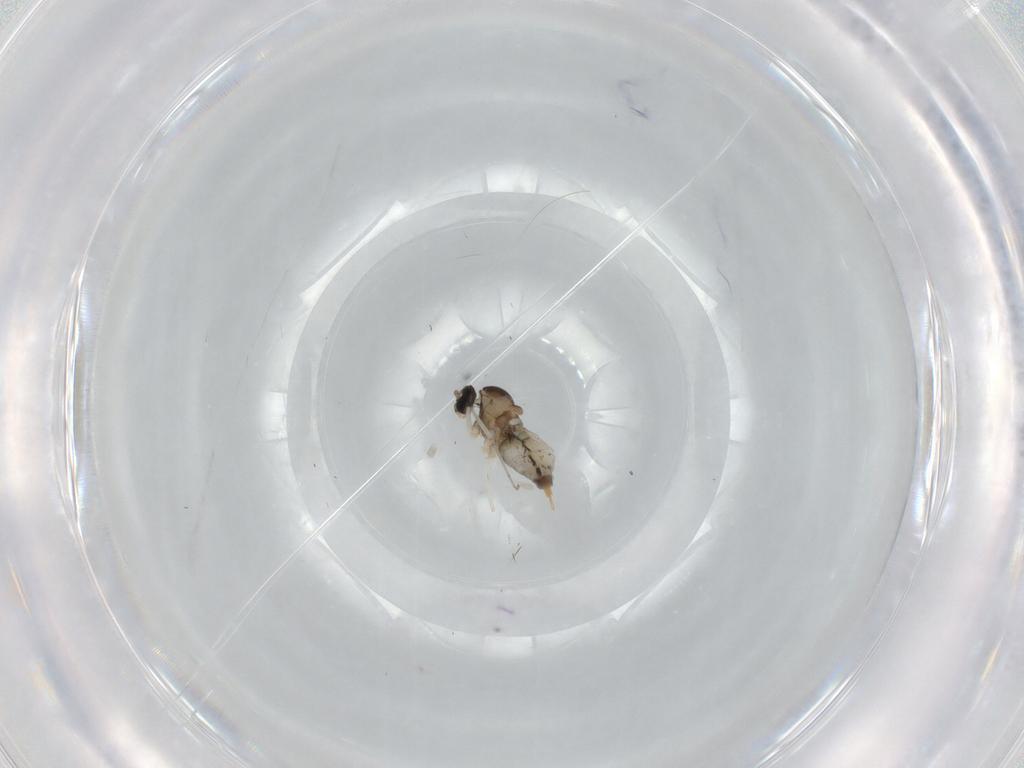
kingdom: Animalia
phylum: Arthropoda
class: Insecta
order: Diptera
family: Cecidomyiidae
